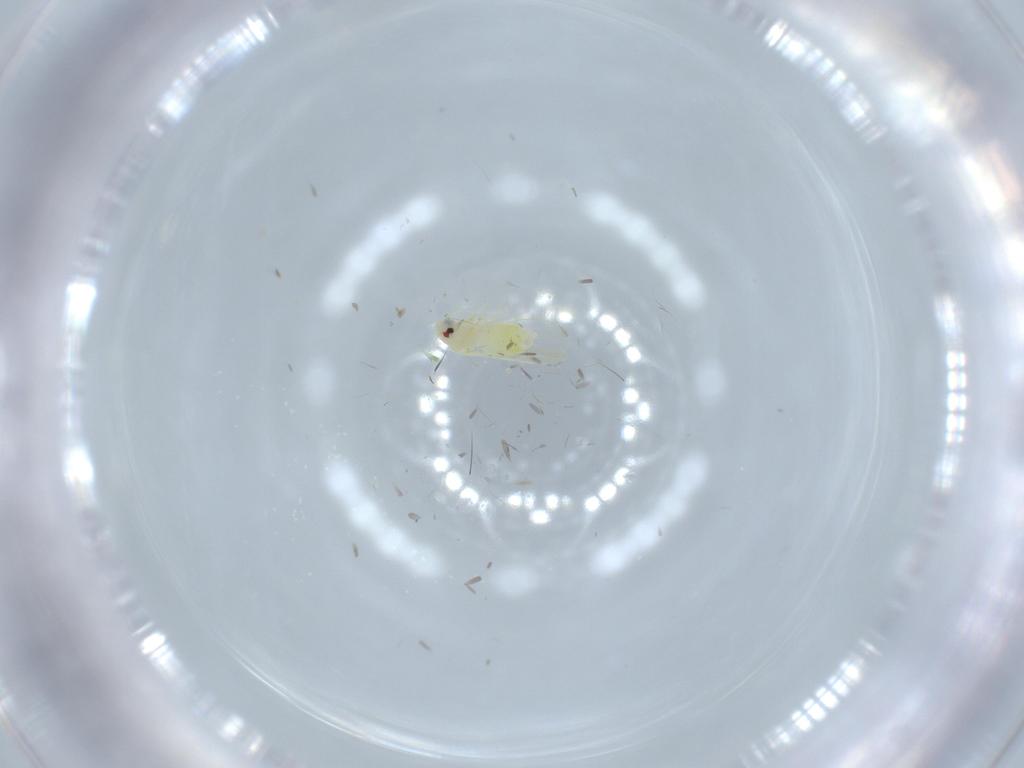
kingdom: Animalia
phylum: Arthropoda
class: Insecta
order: Hemiptera
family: Aleyrodidae
